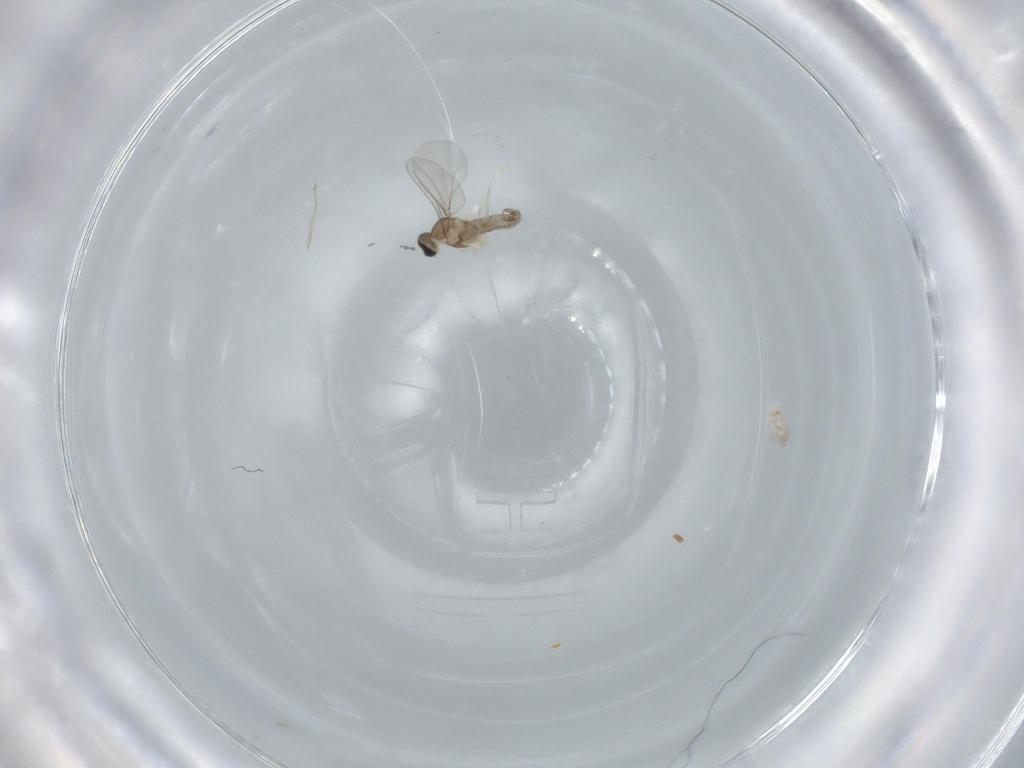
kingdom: Animalia
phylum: Arthropoda
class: Insecta
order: Diptera
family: Cecidomyiidae
